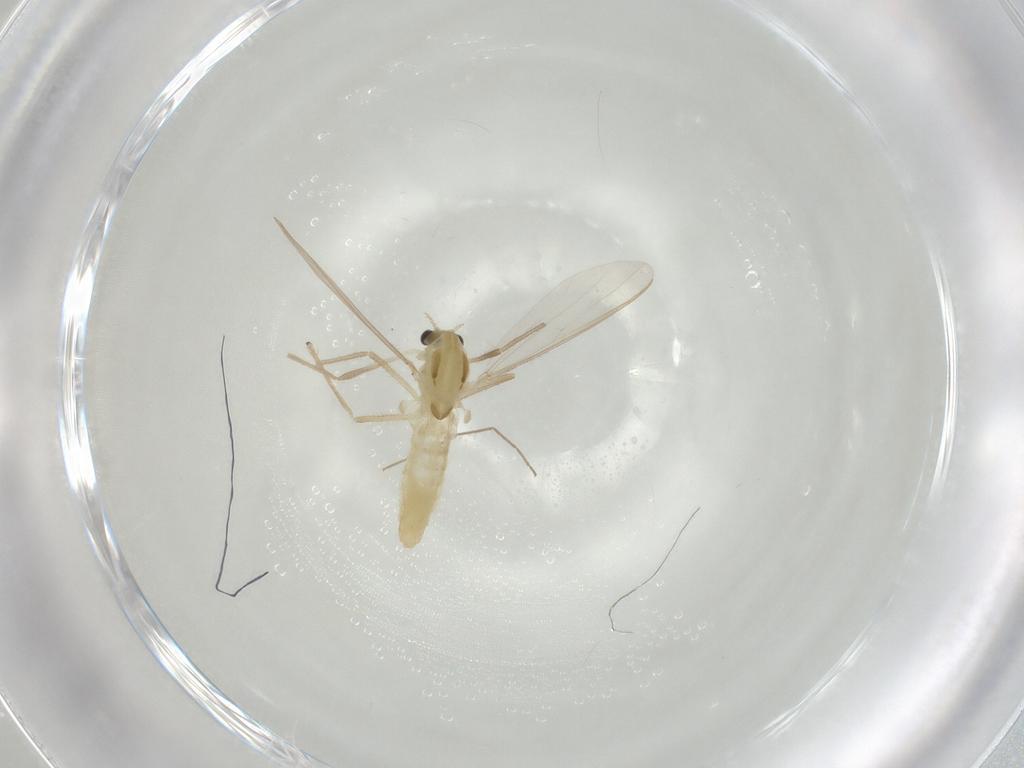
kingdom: Animalia
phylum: Arthropoda
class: Insecta
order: Diptera
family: Chironomidae
